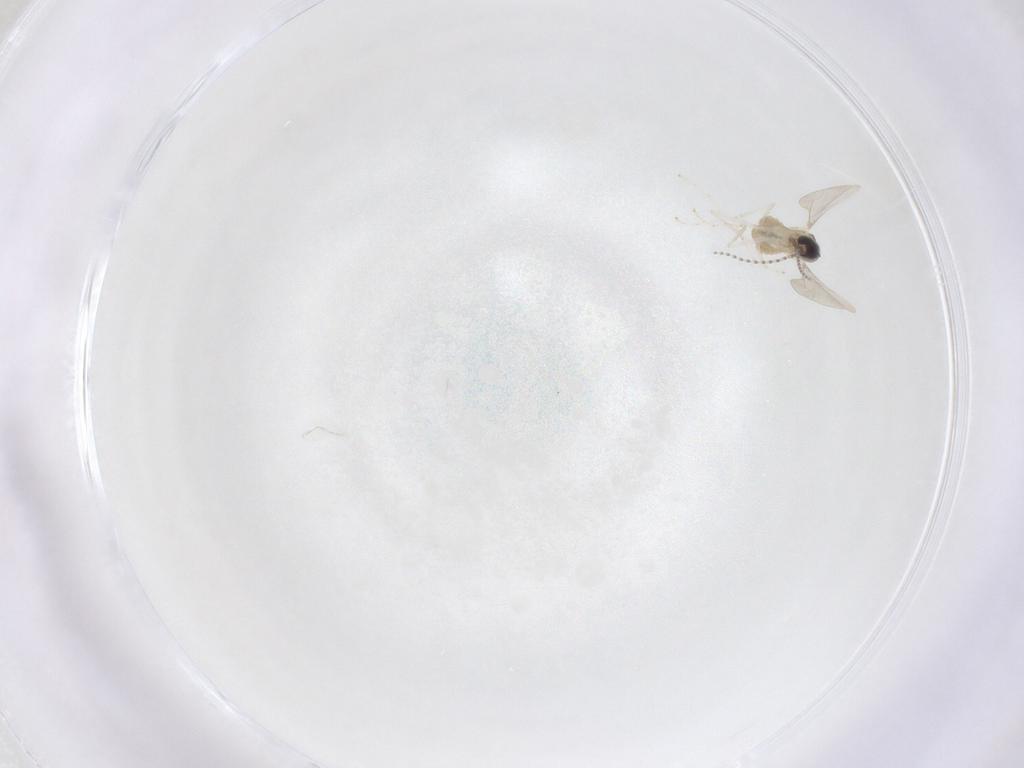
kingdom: Animalia
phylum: Arthropoda
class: Insecta
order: Diptera
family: Cecidomyiidae
